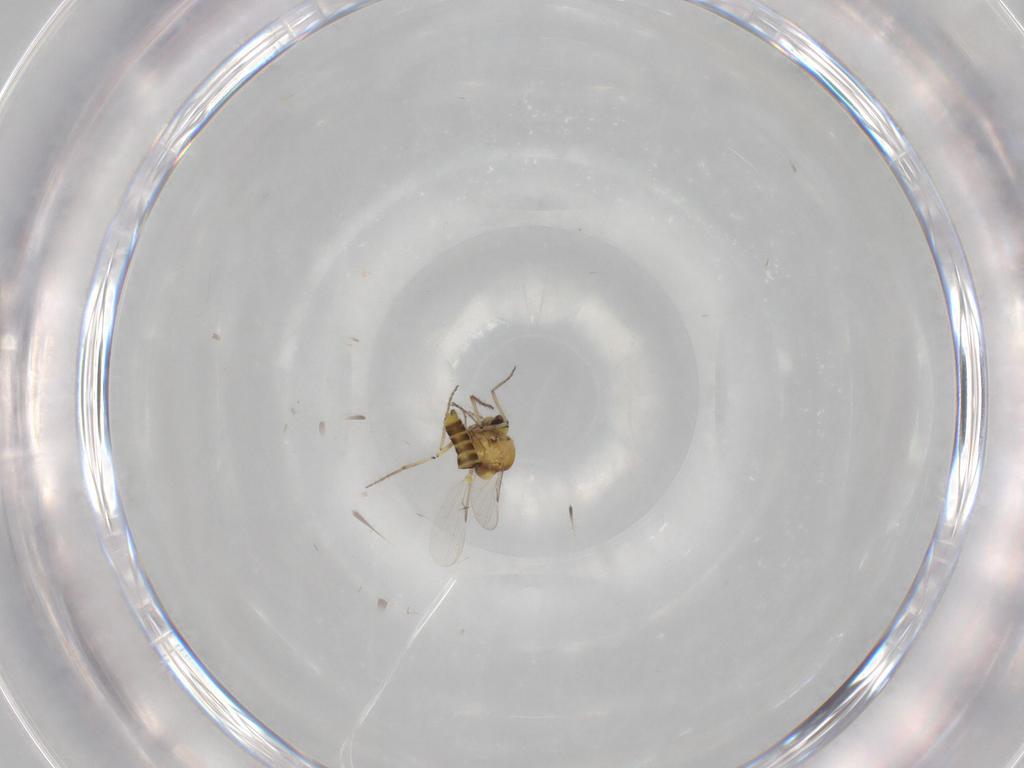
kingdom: Animalia
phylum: Arthropoda
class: Insecta
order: Diptera
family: Ceratopogonidae
